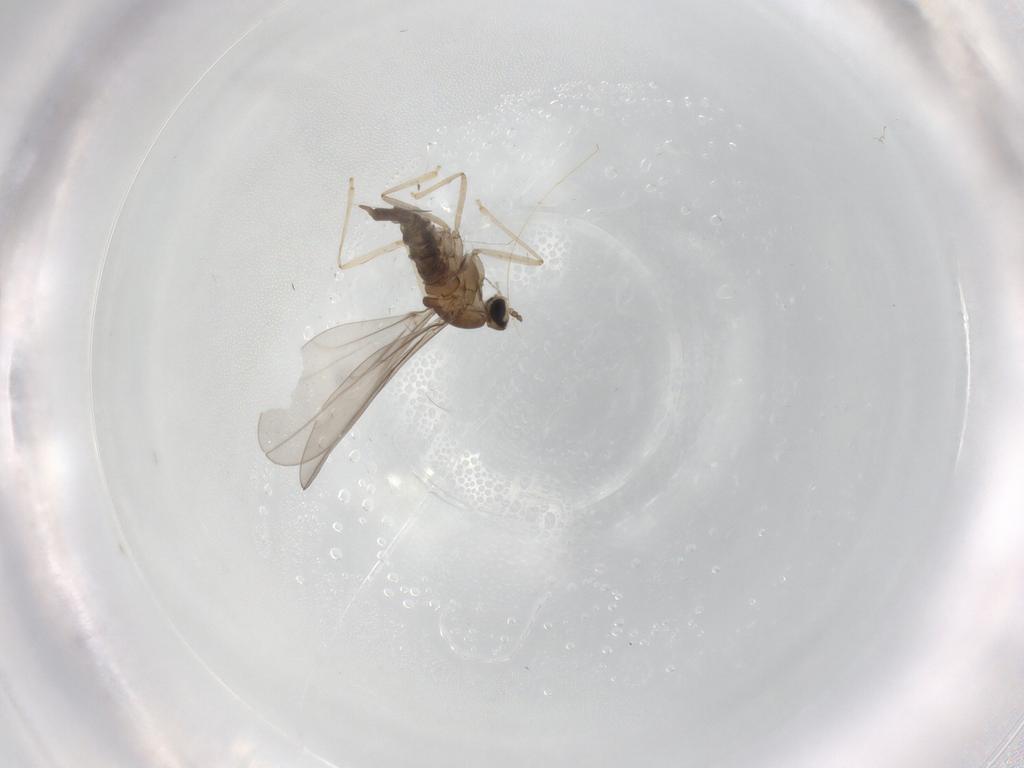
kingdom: Animalia
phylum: Arthropoda
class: Insecta
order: Diptera
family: Cecidomyiidae
